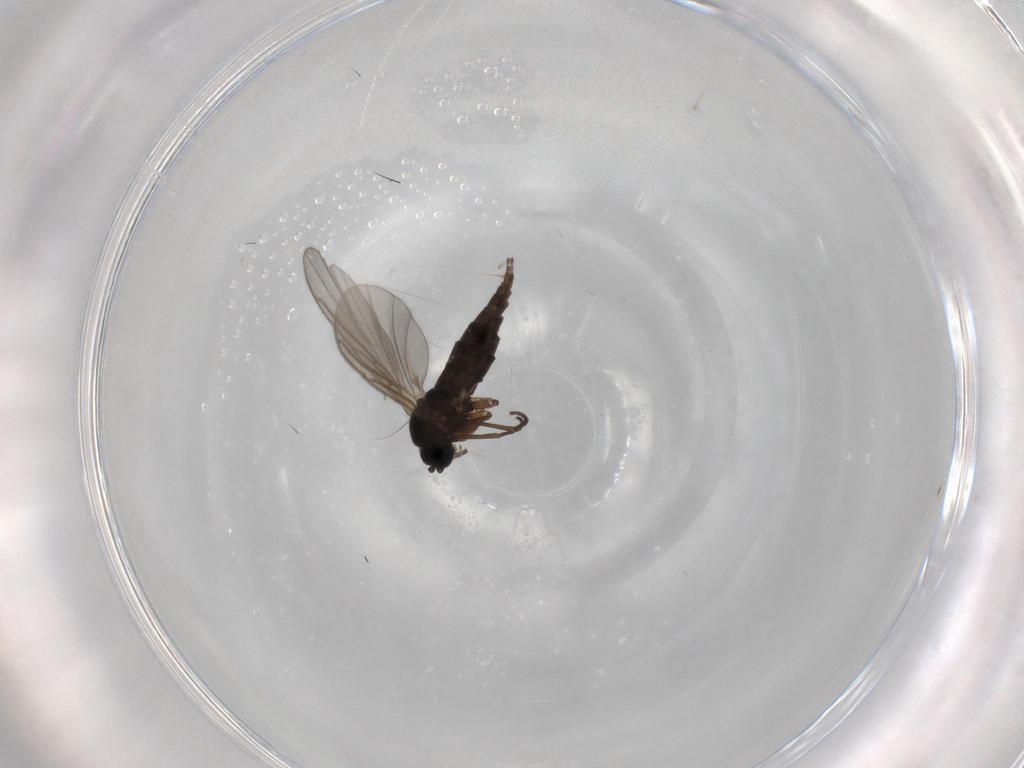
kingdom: Animalia
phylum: Arthropoda
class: Insecta
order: Diptera
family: Sciaridae
